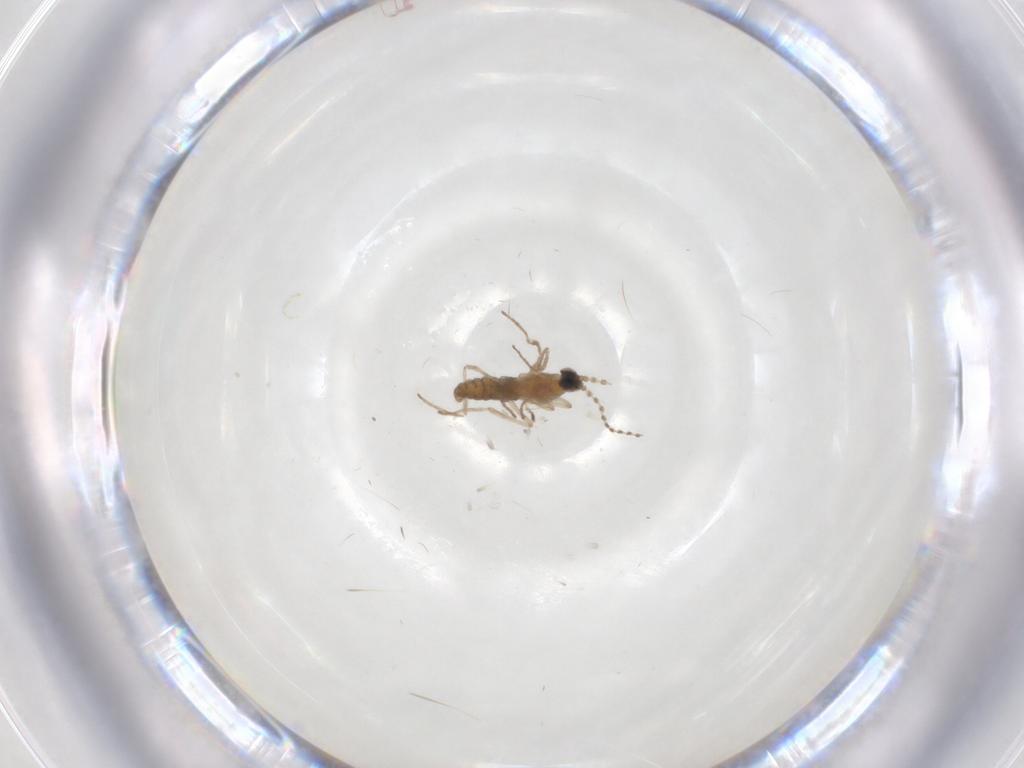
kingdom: Animalia
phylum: Arthropoda
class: Insecta
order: Diptera
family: Cecidomyiidae
